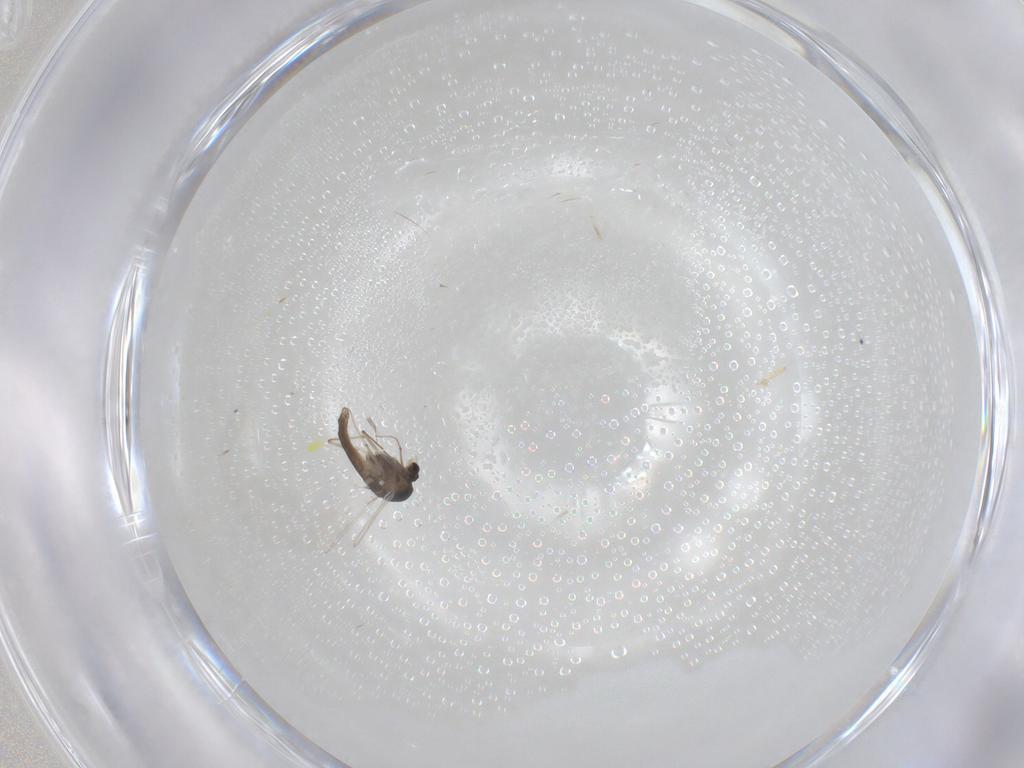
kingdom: Animalia
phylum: Arthropoda
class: Insecta
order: Diptera
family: Chironomidae
